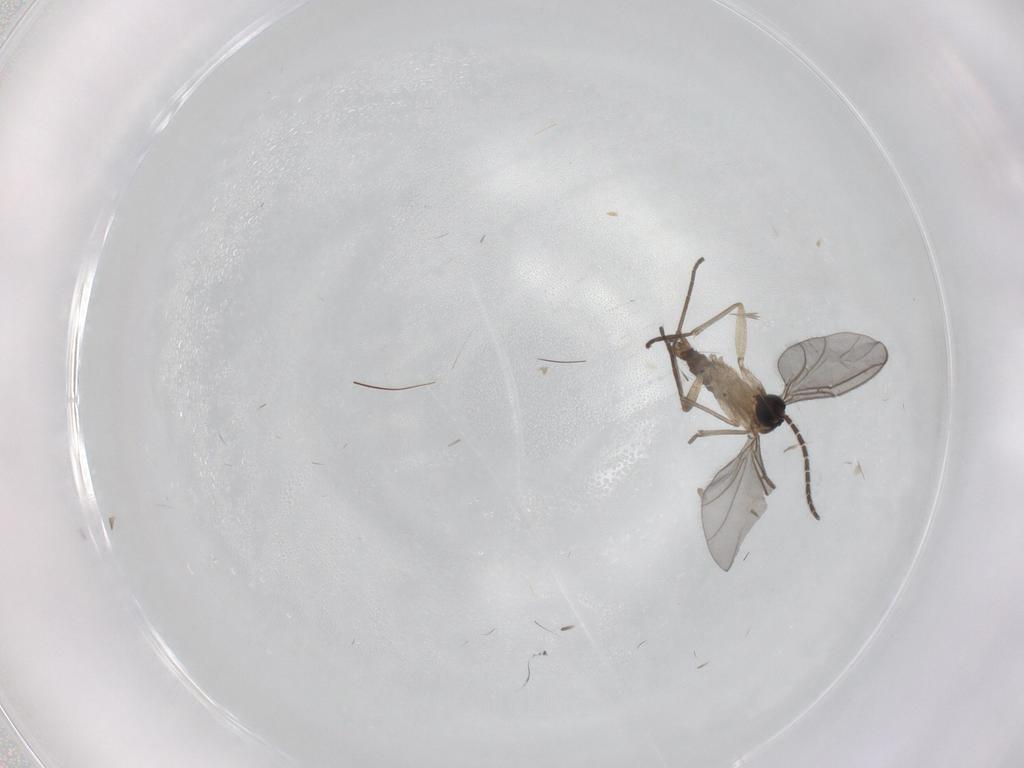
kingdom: Animalia
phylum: Arthropoda
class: Insecta
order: Diptera
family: Sciaridae
